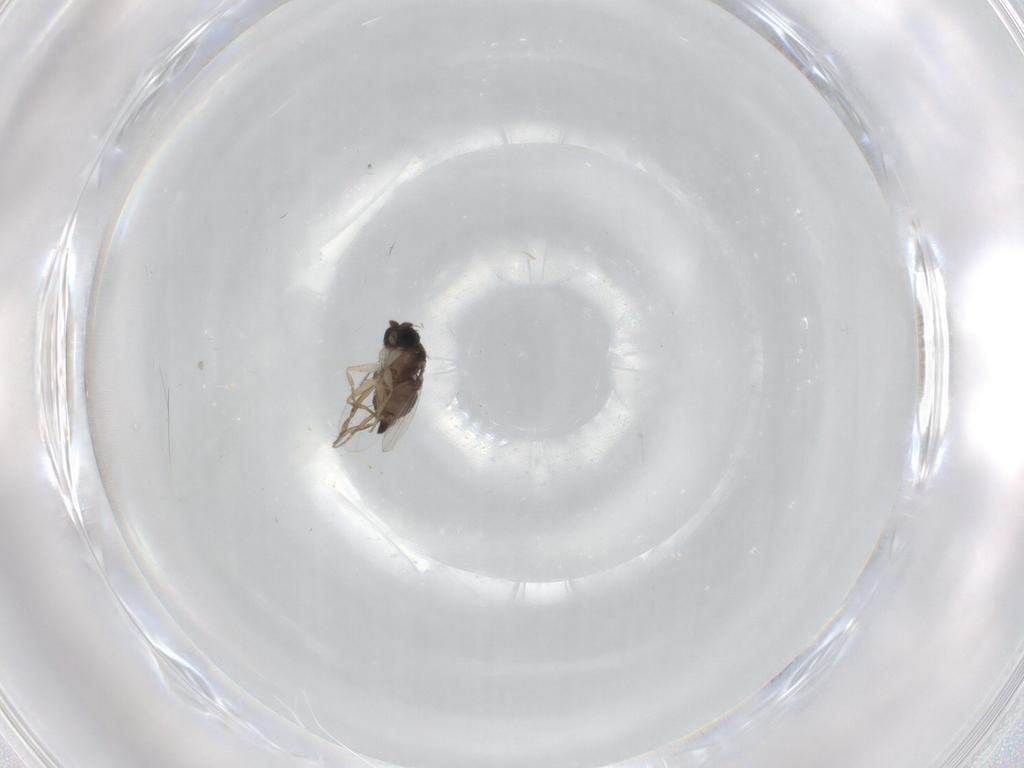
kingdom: Animalia
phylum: Arthropoda
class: Insecta
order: Diptera
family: Phoridae
